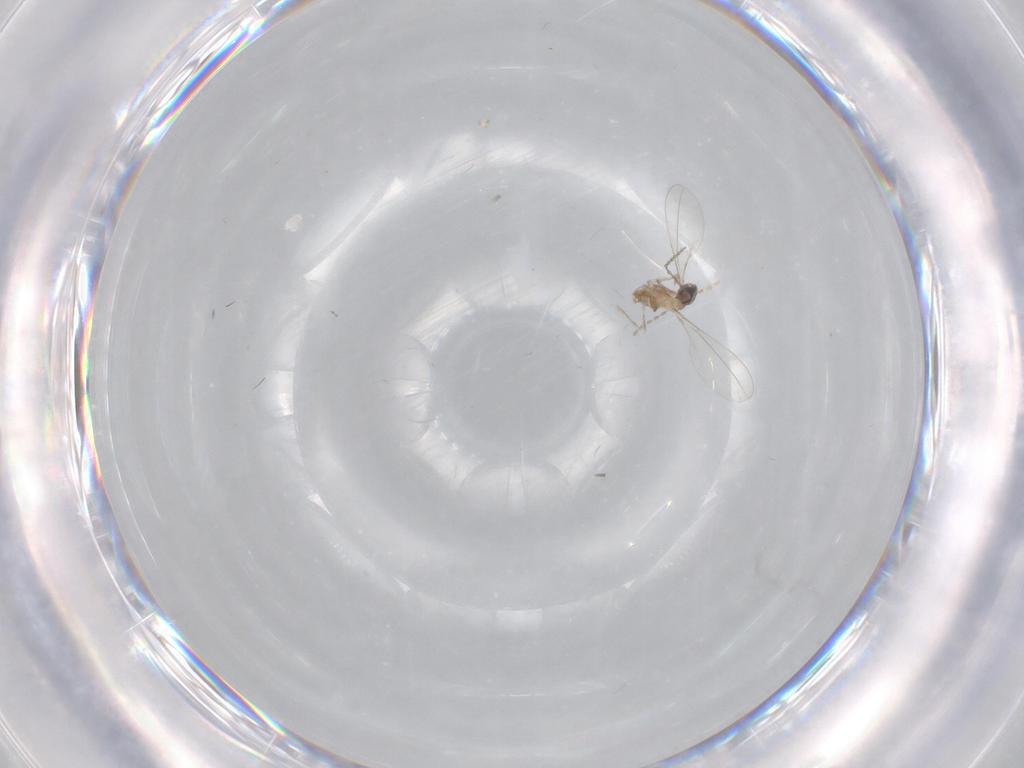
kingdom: Animalia
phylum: Arthropoda
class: Insecta
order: Diptera
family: Cecidomyiidae
